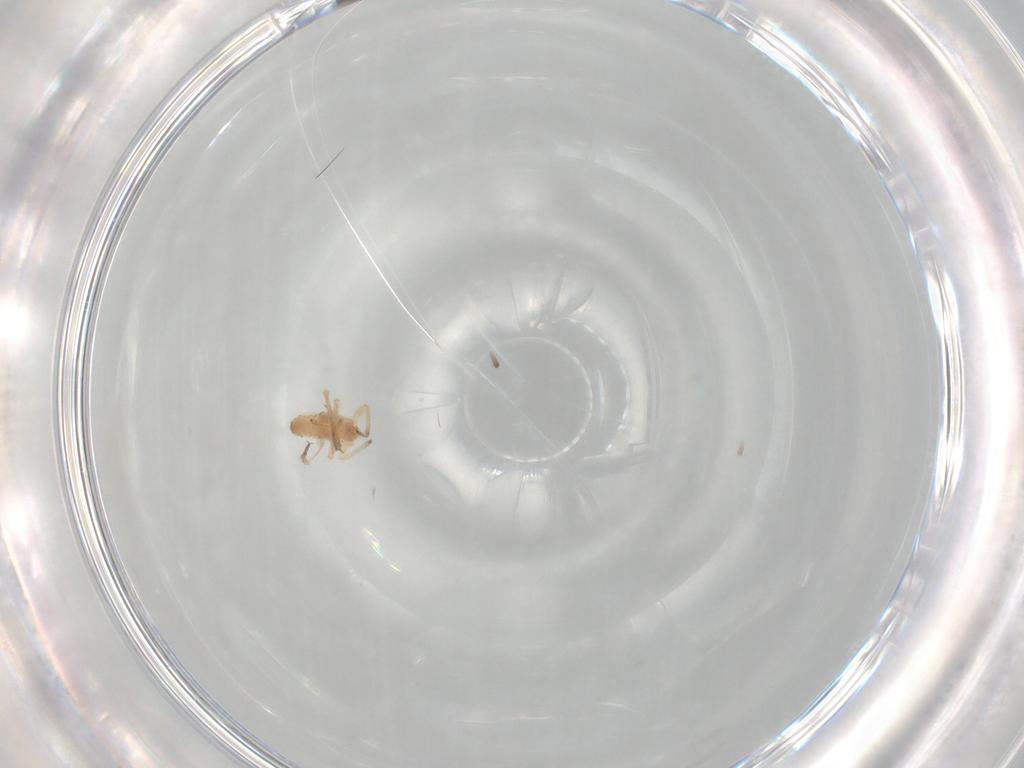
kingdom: Animalia
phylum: Arthropoda
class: Insecta
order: Hemiptera
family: Aphididae
